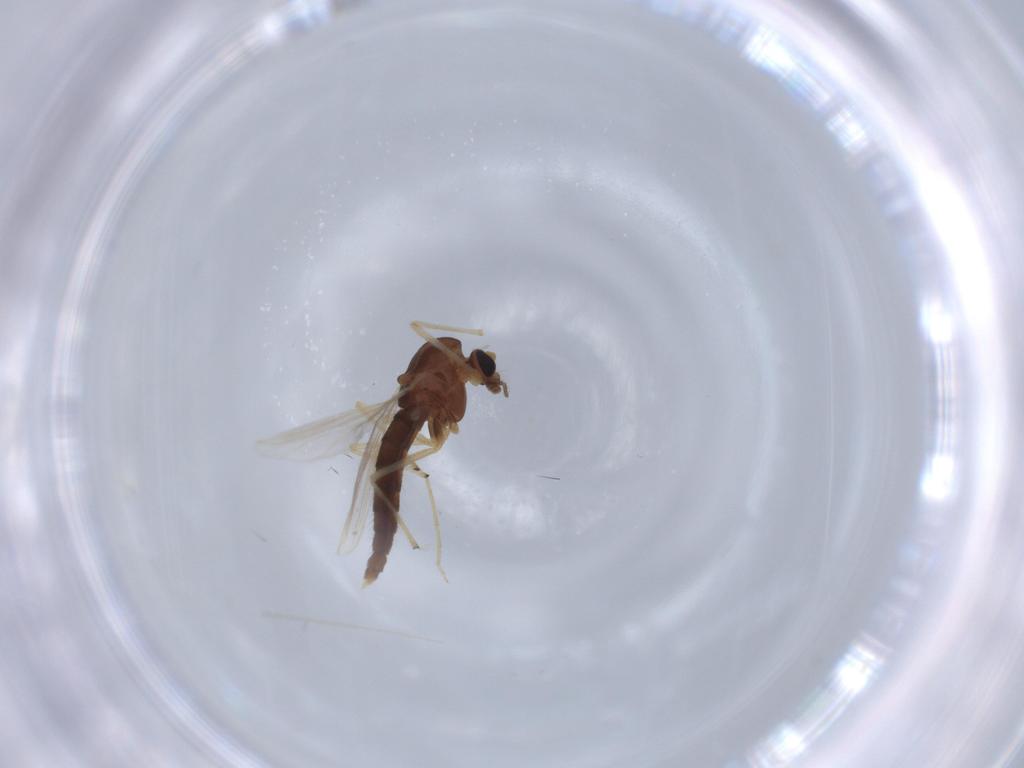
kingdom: Animalia
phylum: Arthropoda
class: Insecta
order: Diptera
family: Chironomidae
